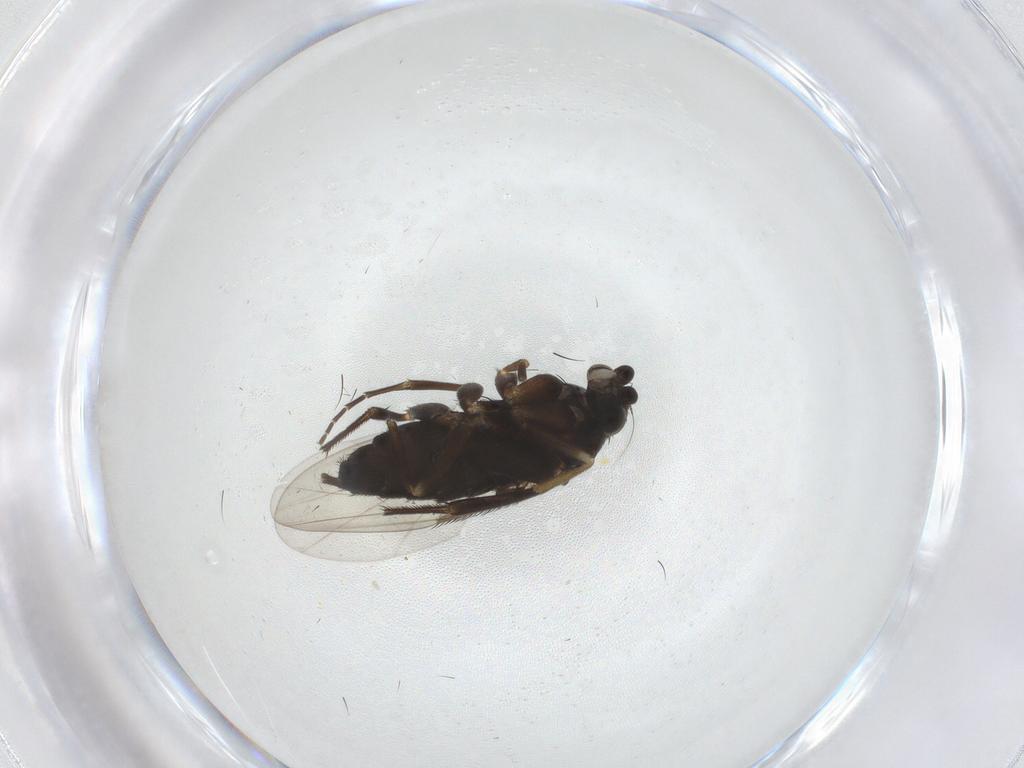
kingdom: Animalia
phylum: Arthropoda
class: Insecta
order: Diptera
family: Phoridae
